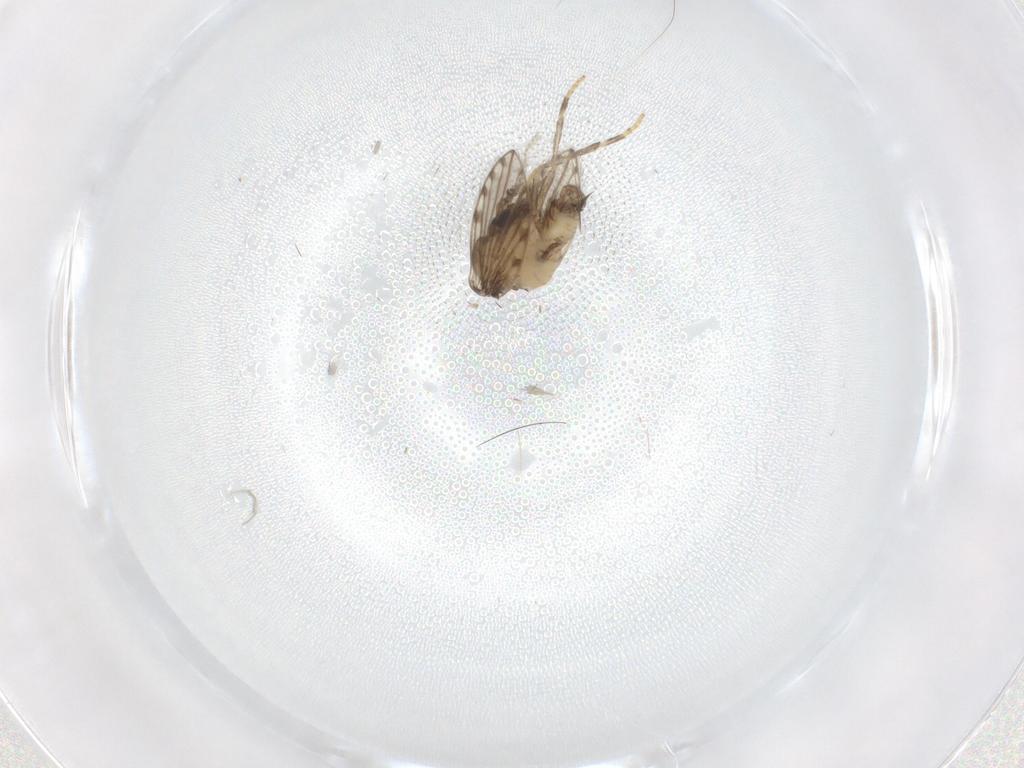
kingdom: Animalia
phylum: Arthropoda
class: Insecta
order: Diptera
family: Psychodidae
